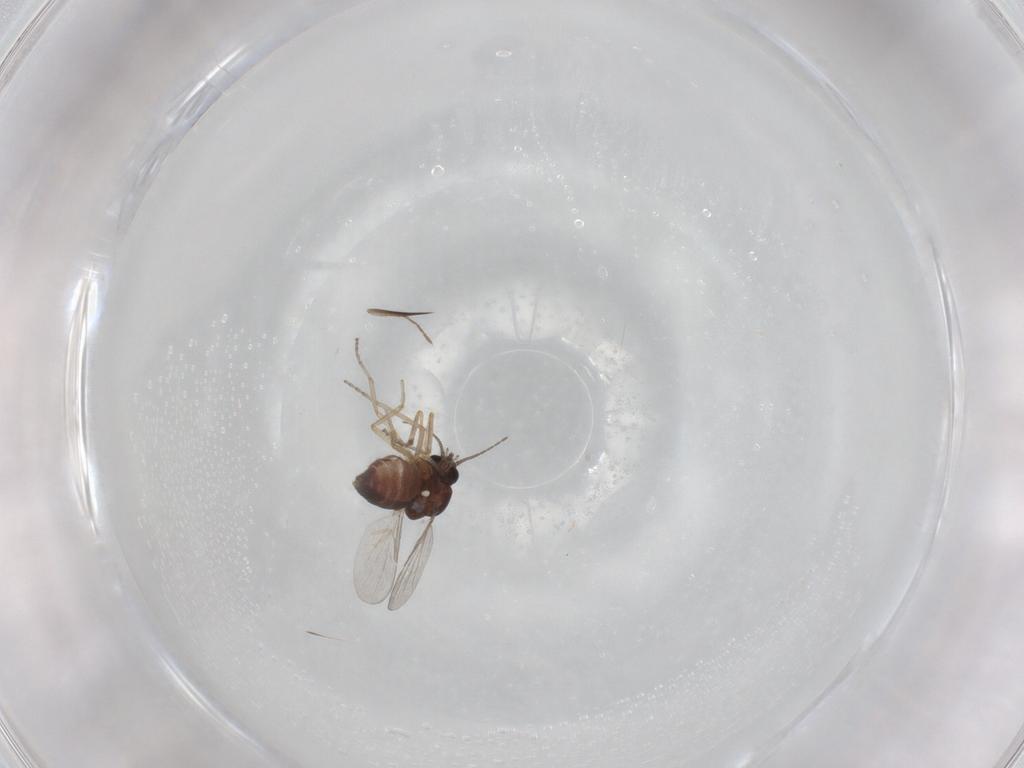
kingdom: Animalia
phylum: Arthropoda
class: Insecta
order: Diptera
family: Ceratopogonidae
